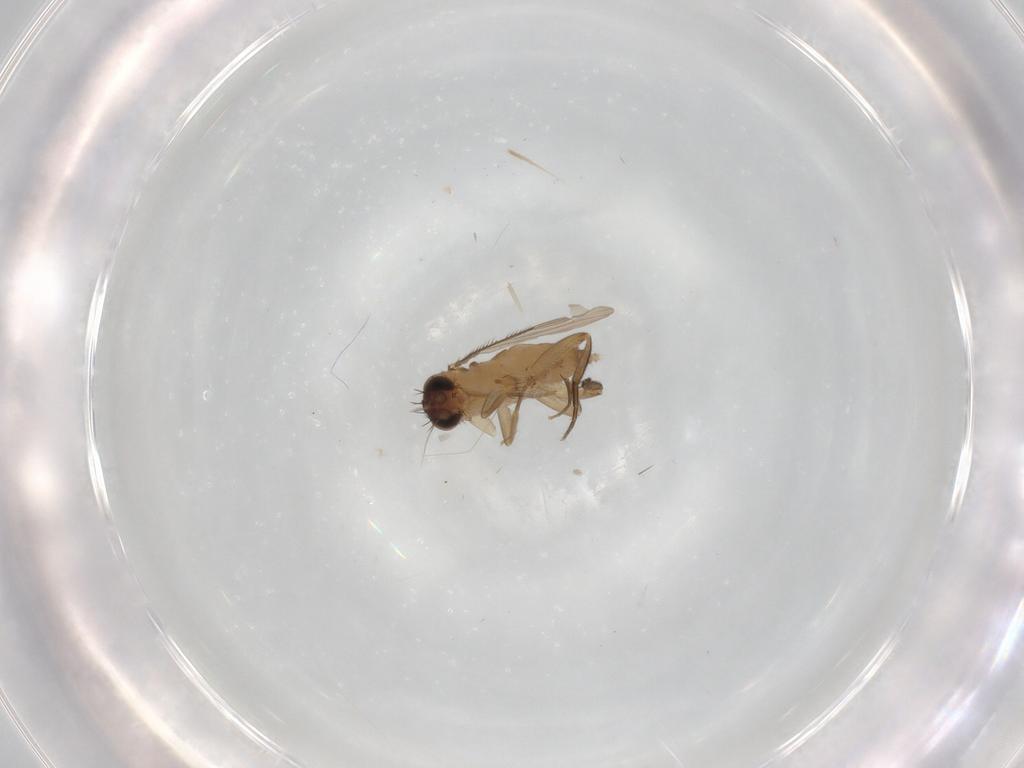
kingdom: Animalia
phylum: Arthropoda
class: Insecta
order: Diptera
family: Phoridae
